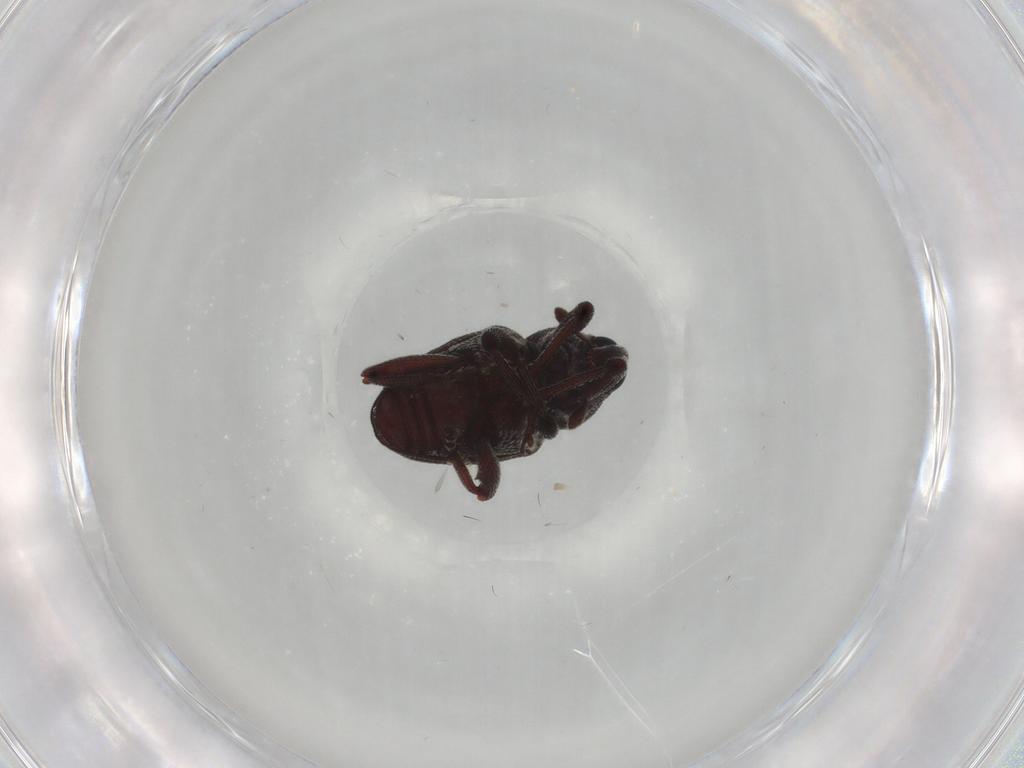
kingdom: Animalia
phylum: Arthropoda
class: Insecta
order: Coleoptera
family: Curculionidae
